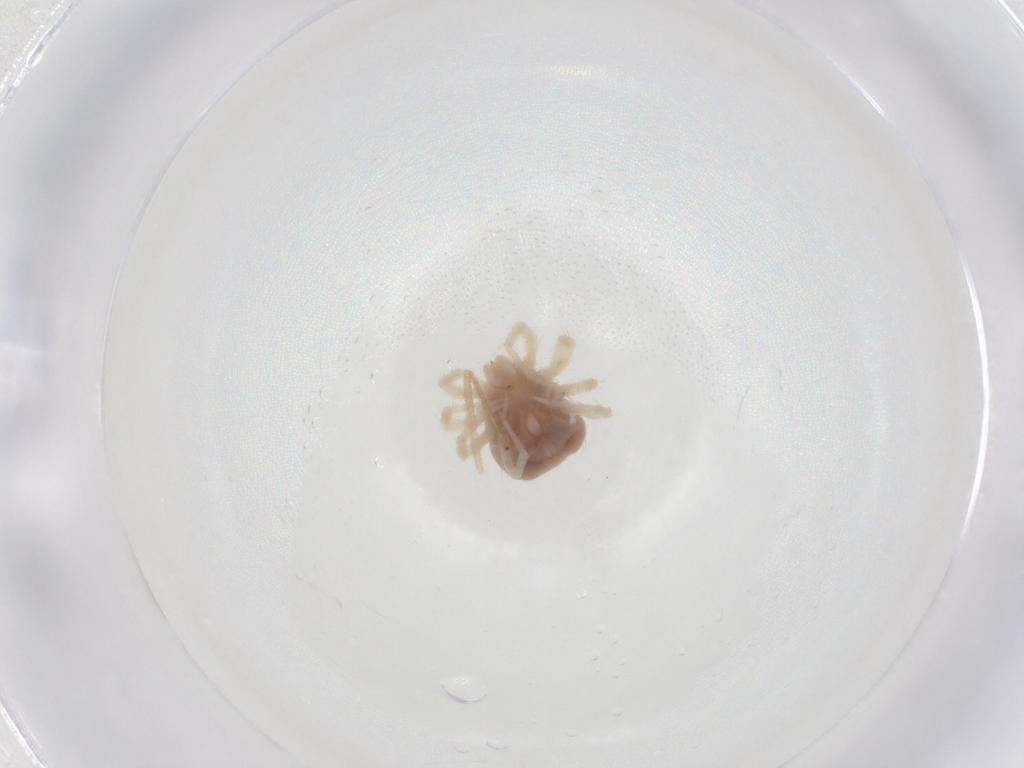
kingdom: Animalia
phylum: Arthropoda
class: Arachnida
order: Trombidiformes
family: Anystidae
